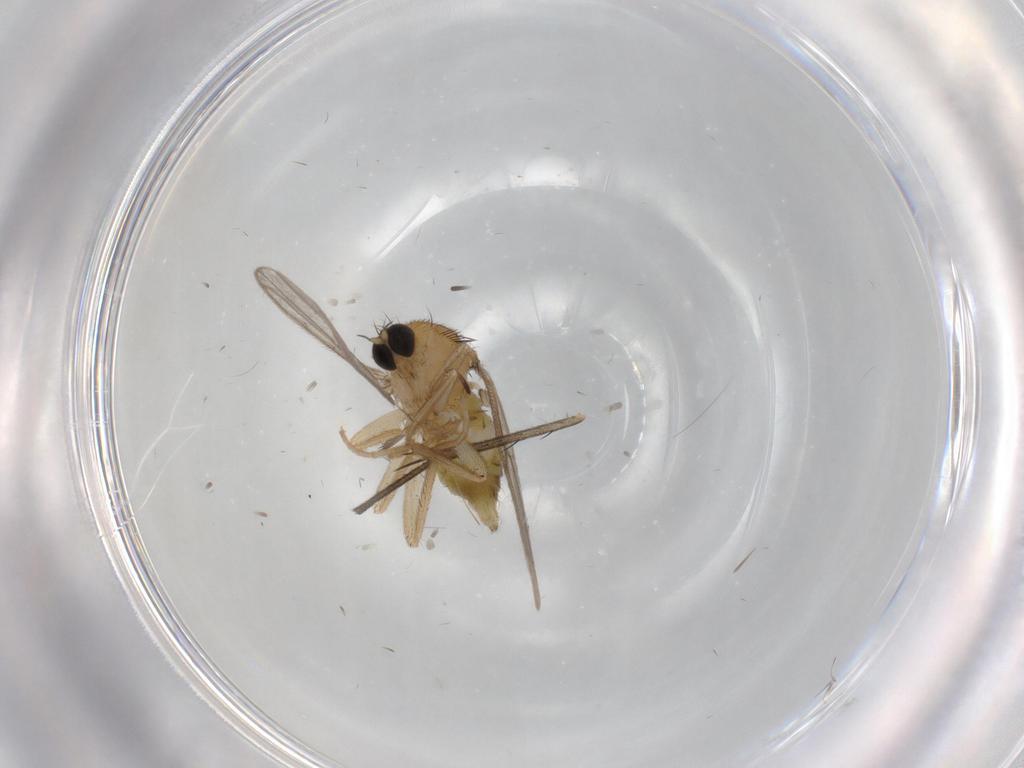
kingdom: Animalia
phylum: Arthropoda
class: Insecta
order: Diptera
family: Hybotidae
